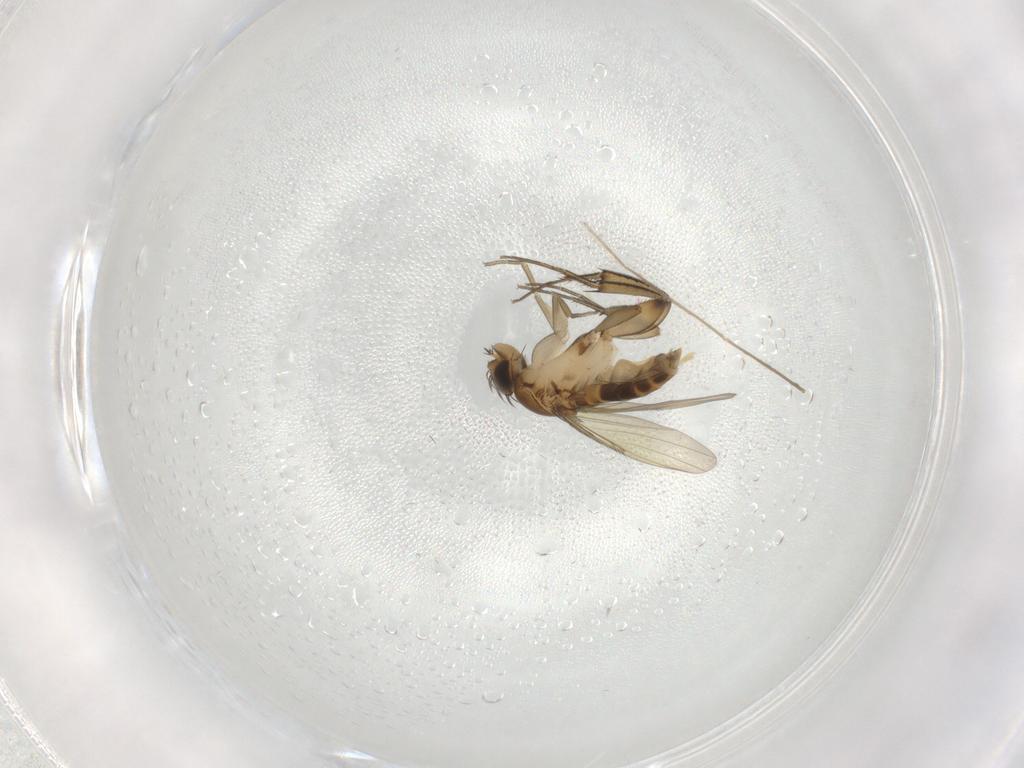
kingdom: Animalia
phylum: Arthropoda
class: Insecta
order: Diptera
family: Phoridae
